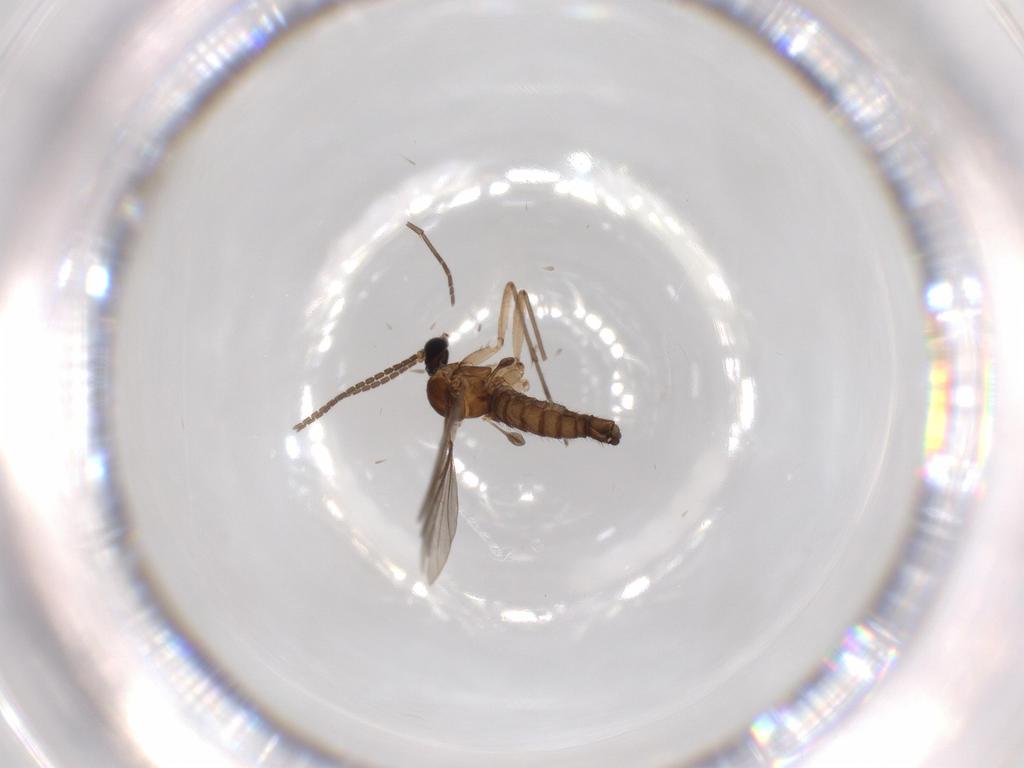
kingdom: Animalia
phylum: Arthropoda
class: Insecta
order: Diptera
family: Sciaridae
